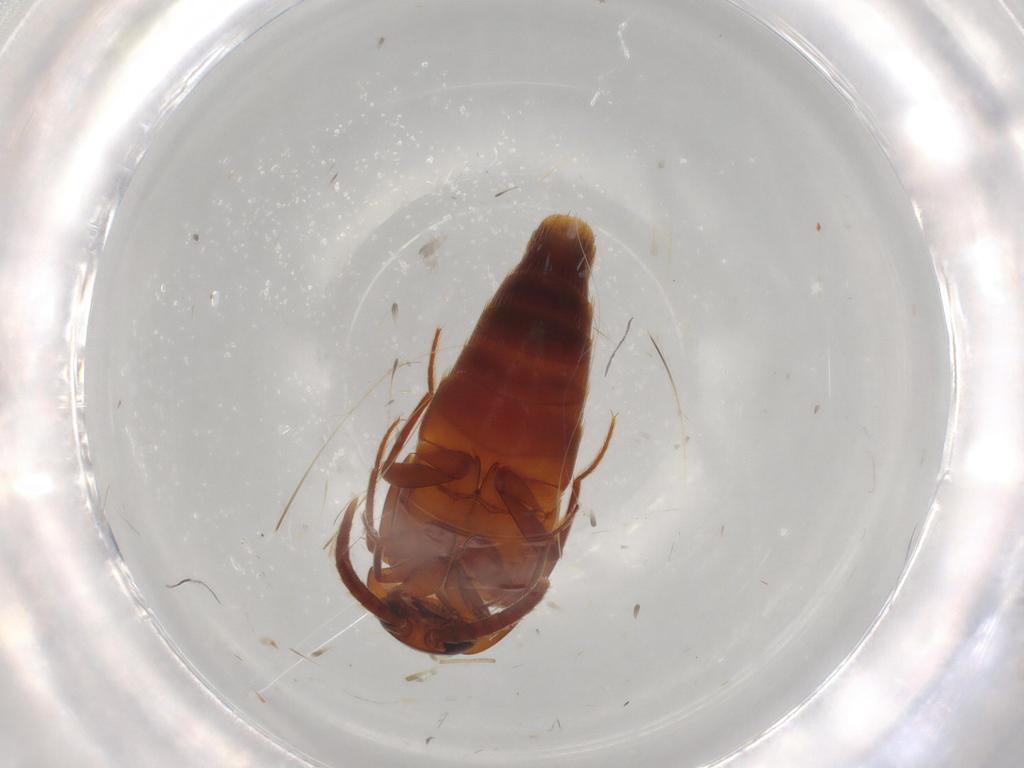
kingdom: Animalia
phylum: Arthropoda
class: Insecta
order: Coleoptera
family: Staphylinidae
